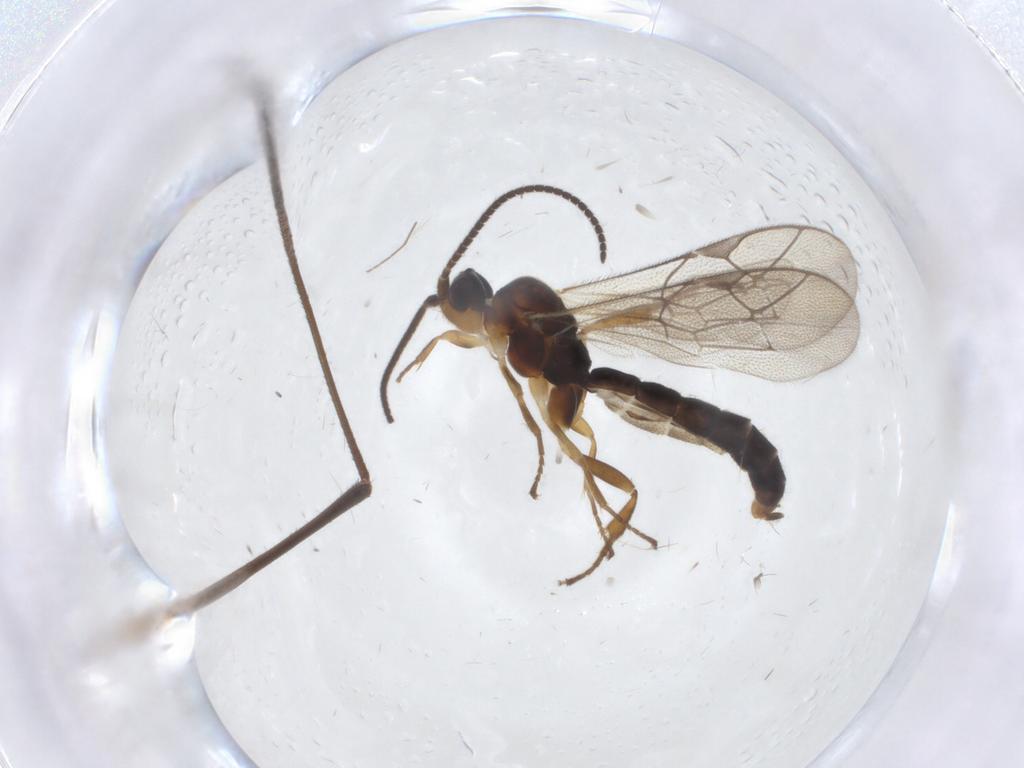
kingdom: Animalia
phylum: Arthropoda
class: Insecta
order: Hymenoptera
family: Ichneumonidae
